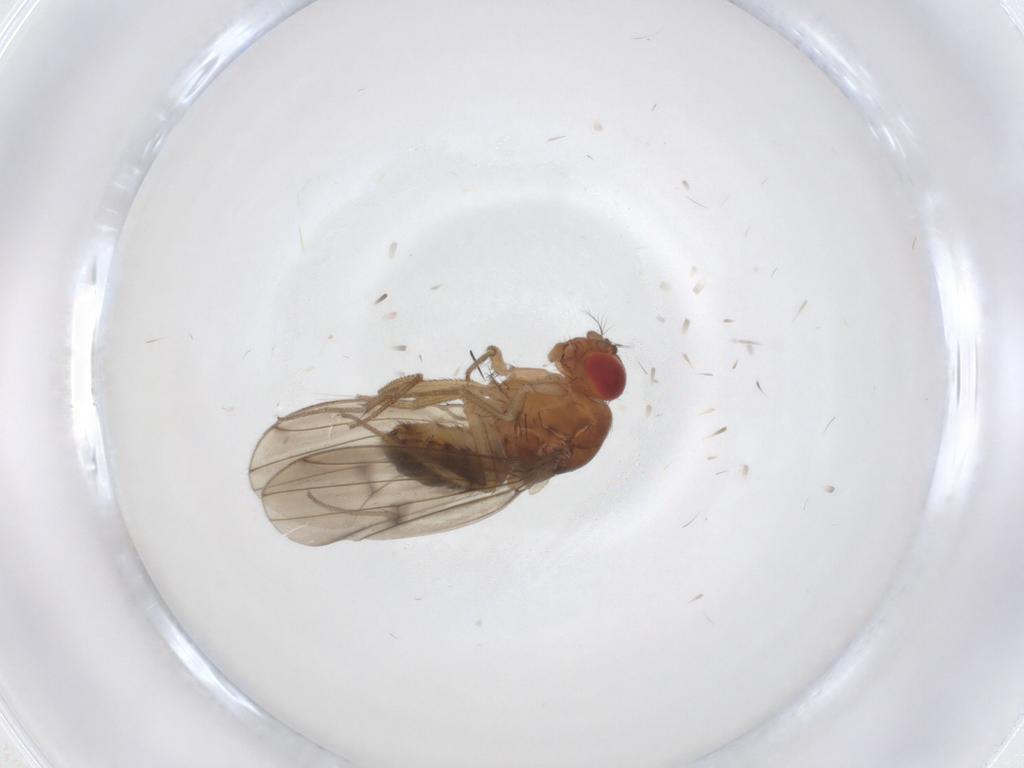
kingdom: Animalia
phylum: Arthropoda
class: Insecta
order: Diptera
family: Drosophilidae
